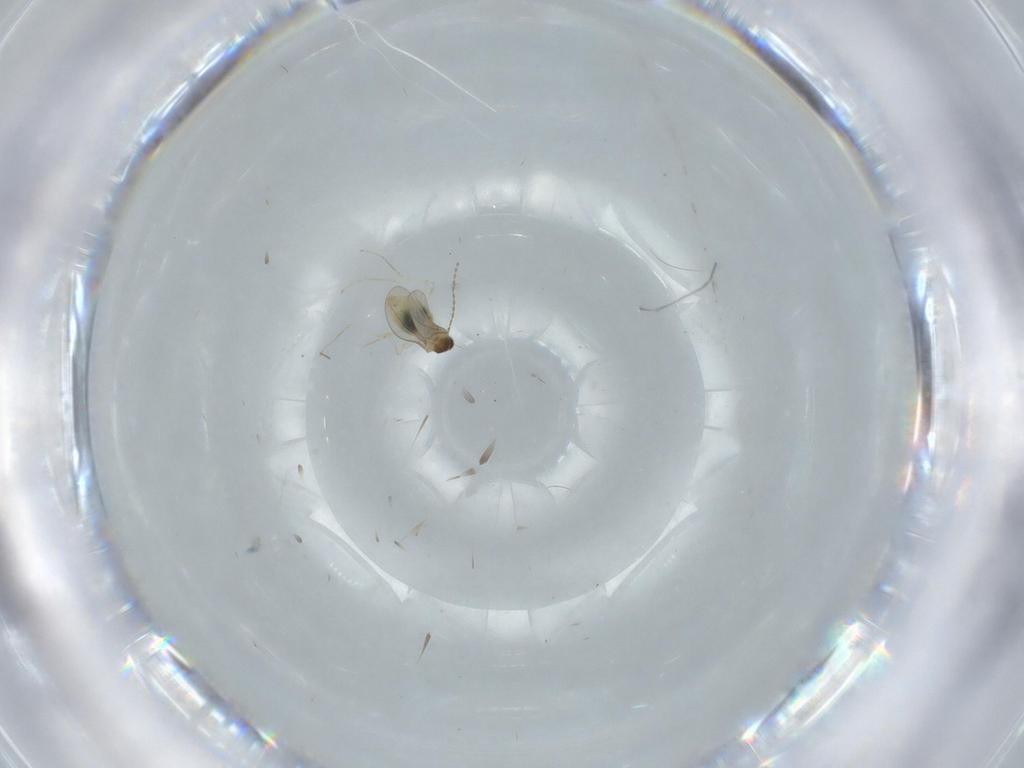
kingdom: Animalia
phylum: Arthropoda
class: Insecta
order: Diptera
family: Cecidomyiidae
